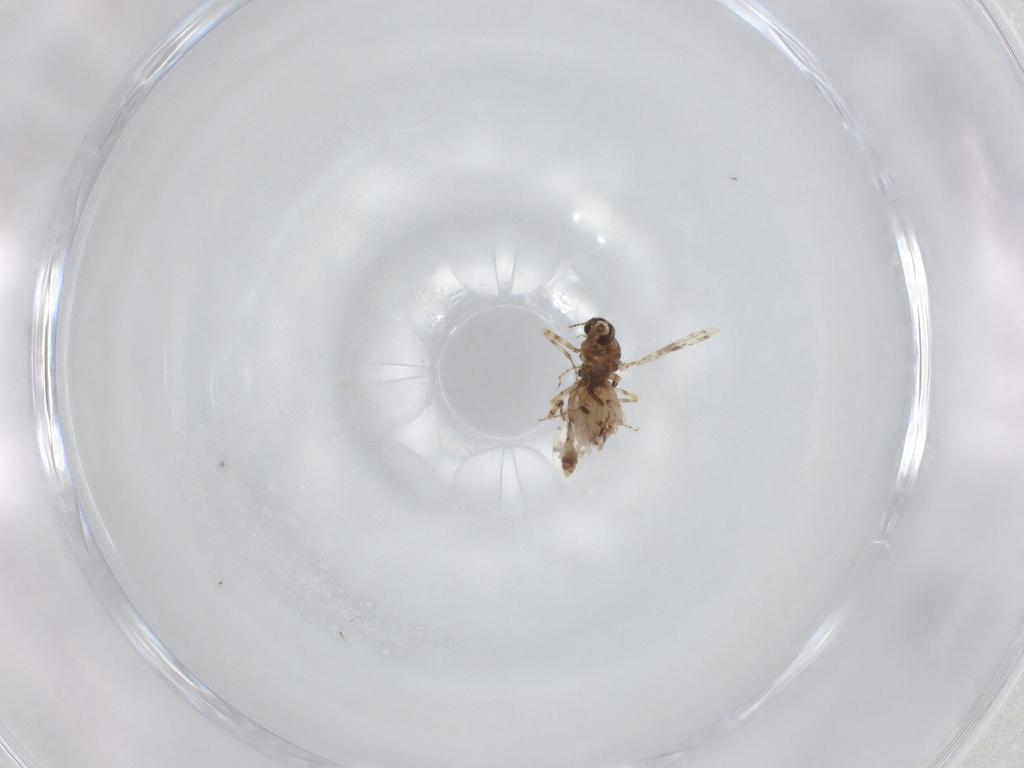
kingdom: Animalia
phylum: Arthropoda
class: Insecta
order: Diptera
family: Ceratopogonidae
